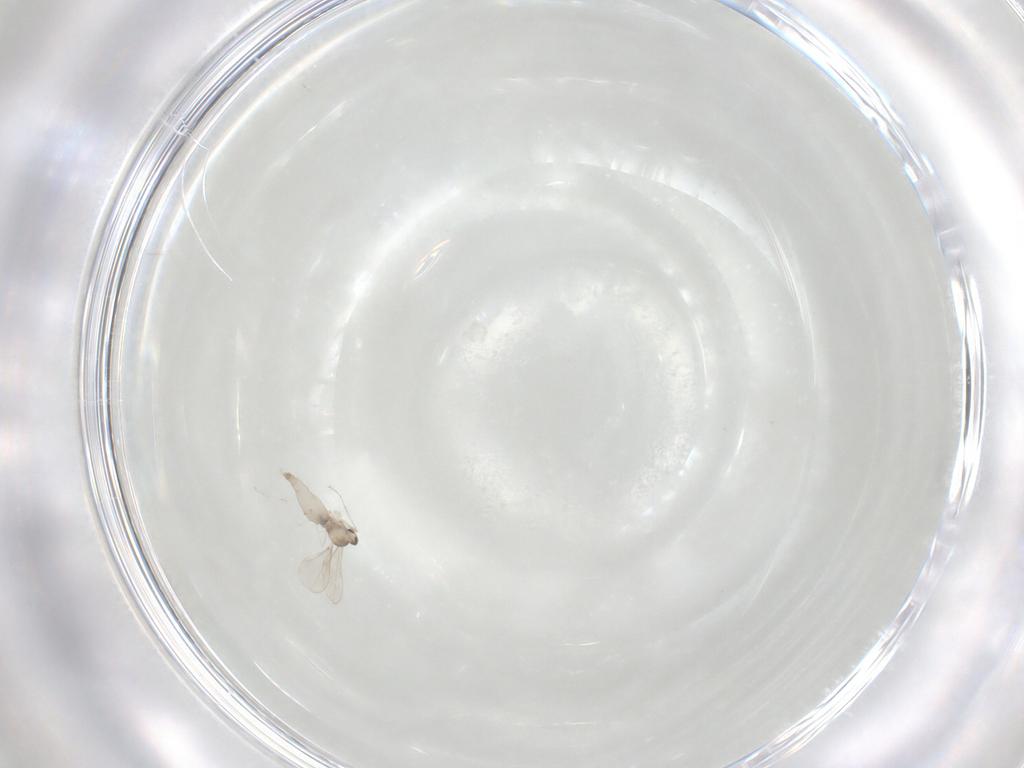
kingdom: Animalia
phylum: Arthropoda
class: Insecta
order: Diptera
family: Cecidomyiidae
